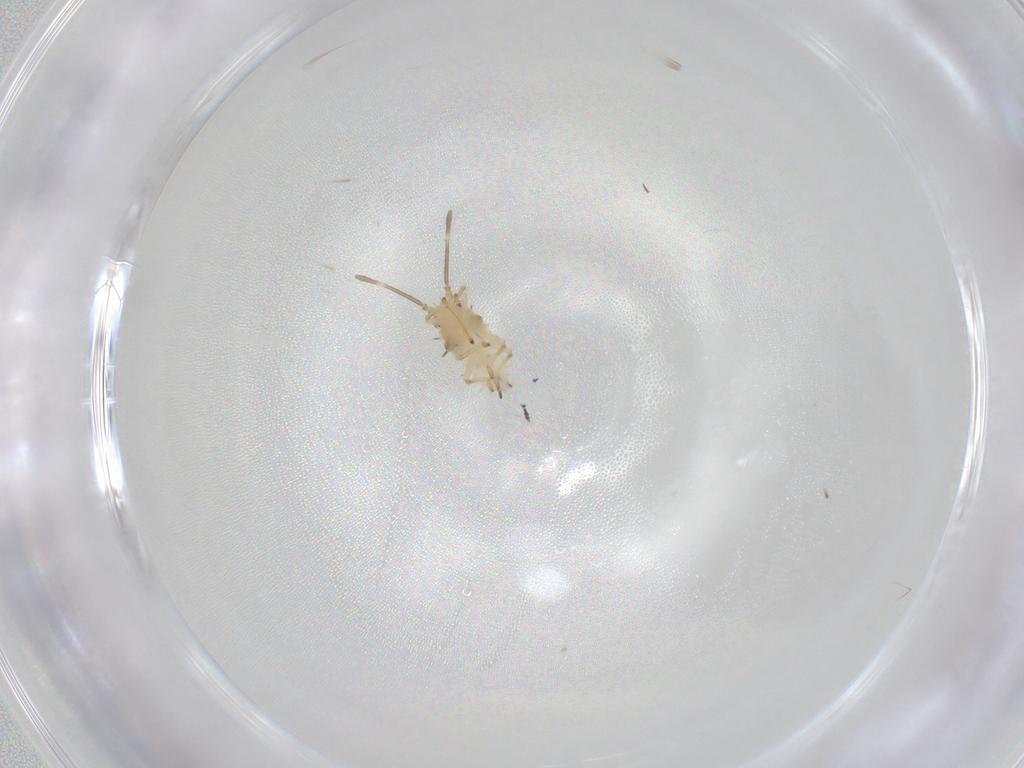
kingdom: Animalia
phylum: Arthropoda
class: Insecta
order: Hemiptera
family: Tingidae
